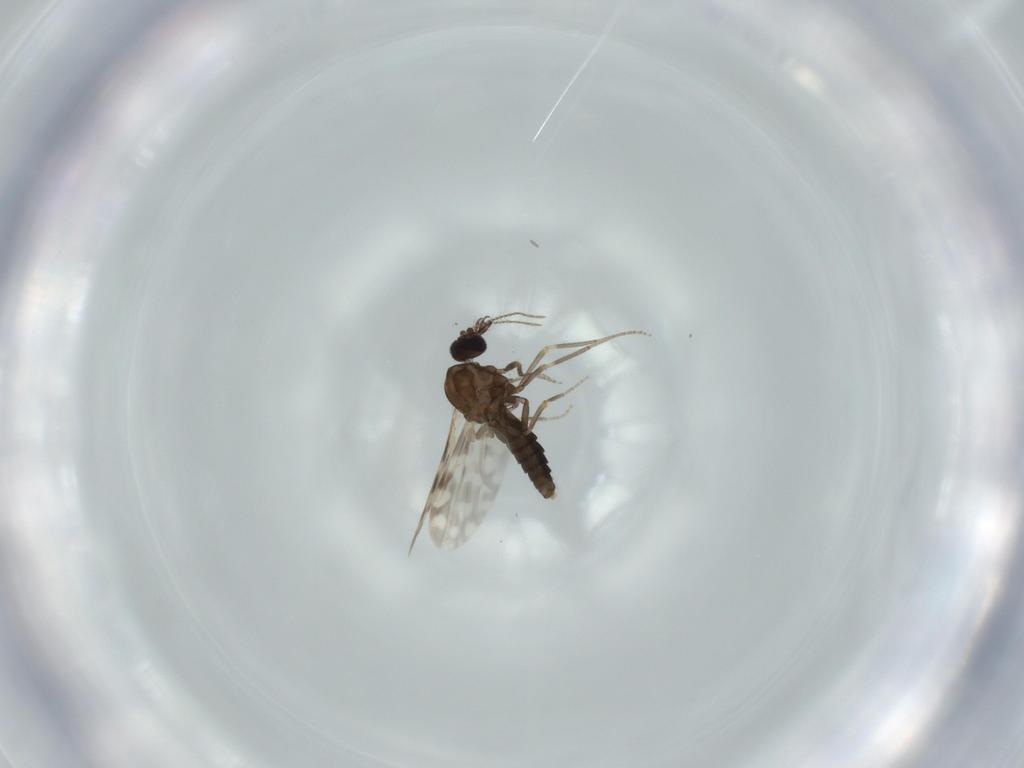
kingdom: Animalia
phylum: Arthropoda
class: Insecta
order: Diptera
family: Ceratopogonidae
